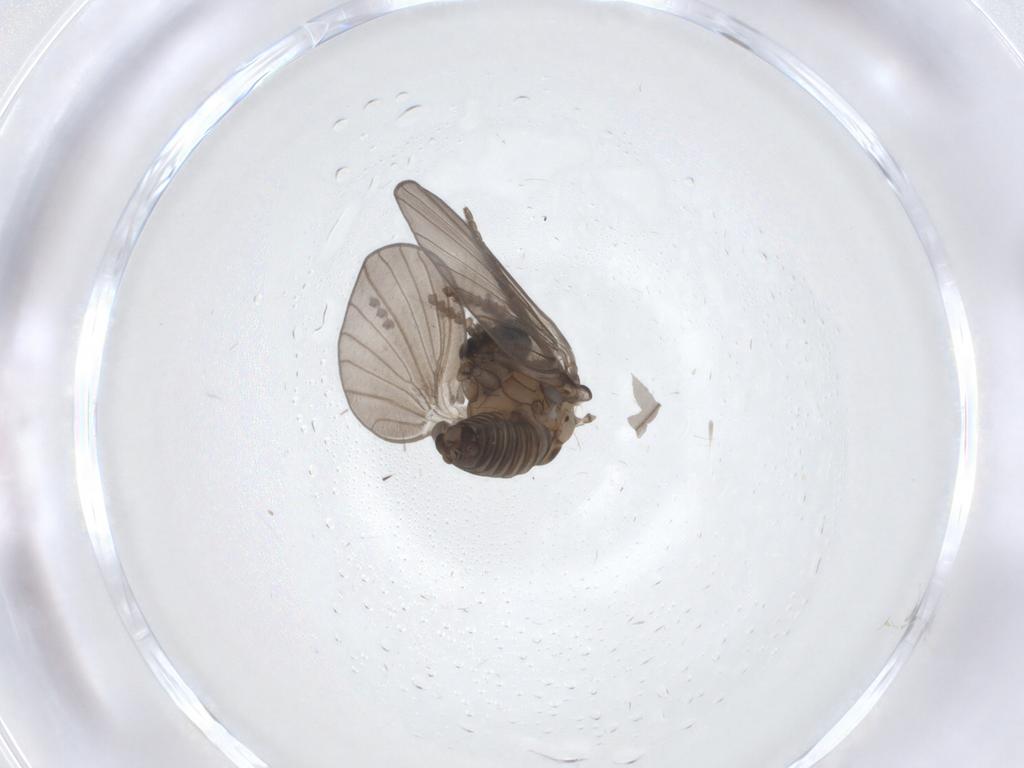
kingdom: Animalia
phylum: Arthropoda
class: Insecta
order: Diptera
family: Psychodidae
